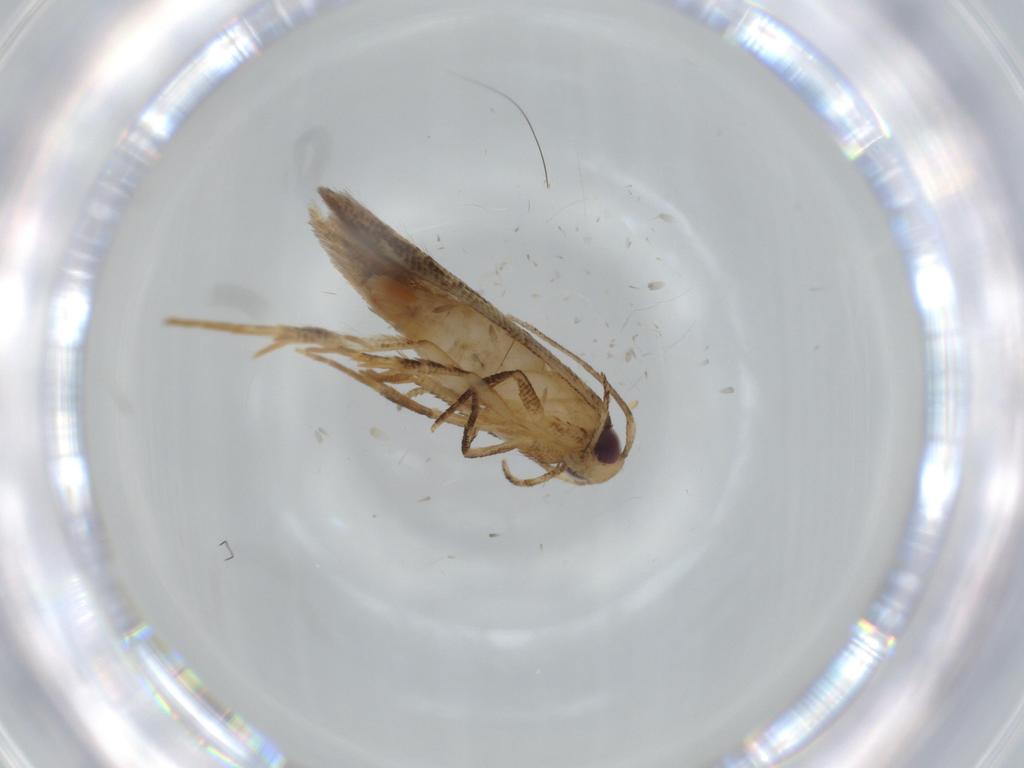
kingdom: Animalia
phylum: Arthropoda
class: Insecta
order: Lepidoptera
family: Cosmopterigidae
